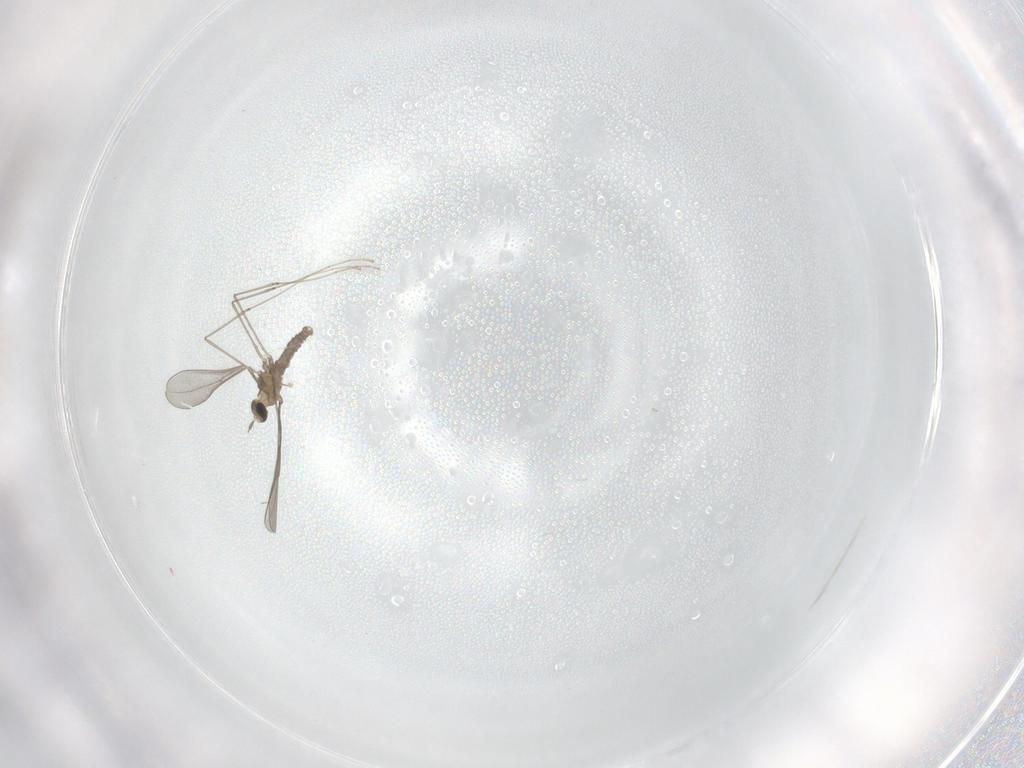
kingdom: Animalia
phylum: Arthropoda
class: Insecta
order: Diptera
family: Cecidomyiidae
